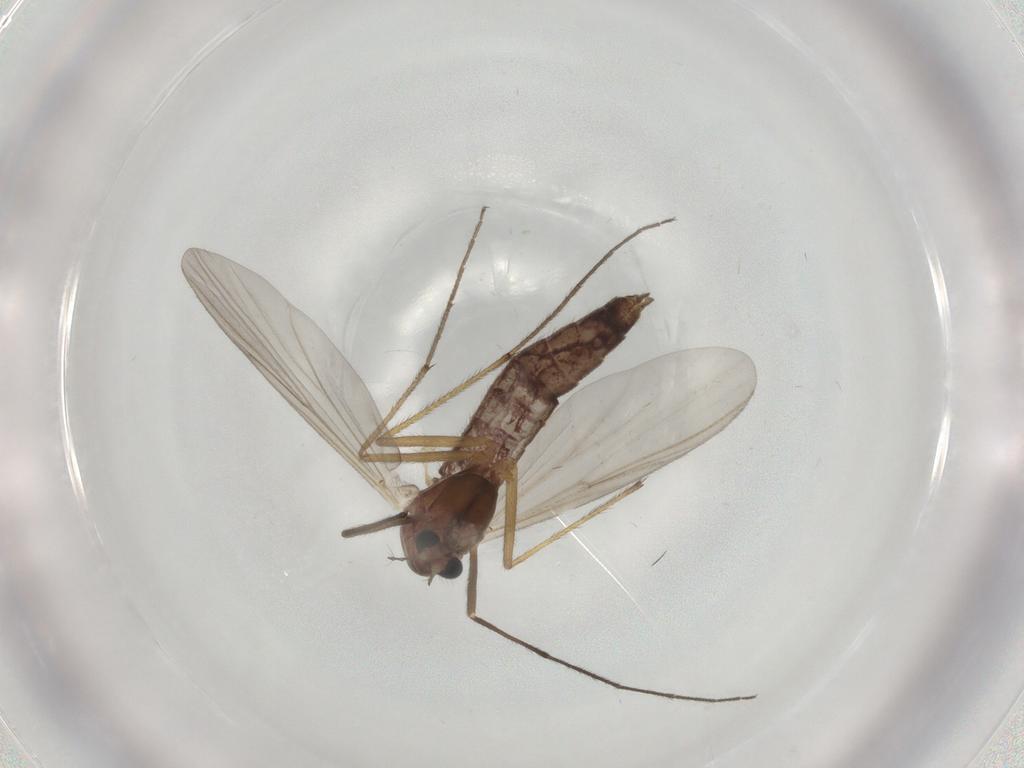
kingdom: Animalia
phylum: Arthropoda
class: Insecta
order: Diptera
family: Chironomidae
